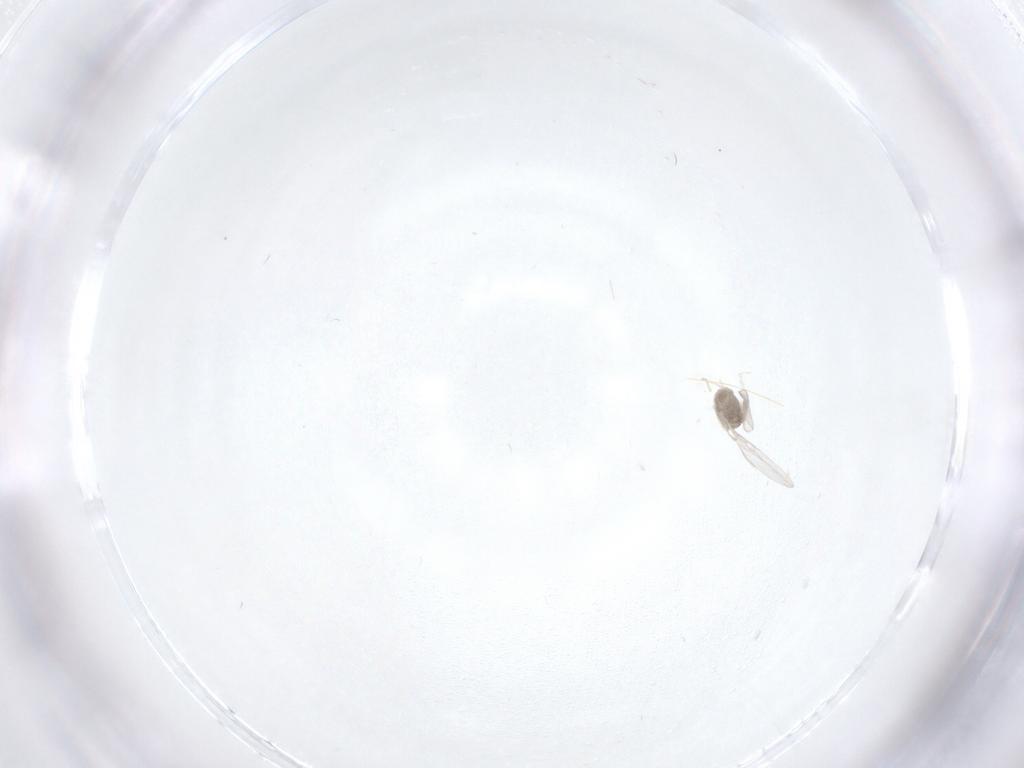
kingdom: Animalia
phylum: Arthropoda
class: Insecta
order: Diptera
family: Cecidomyiidae
